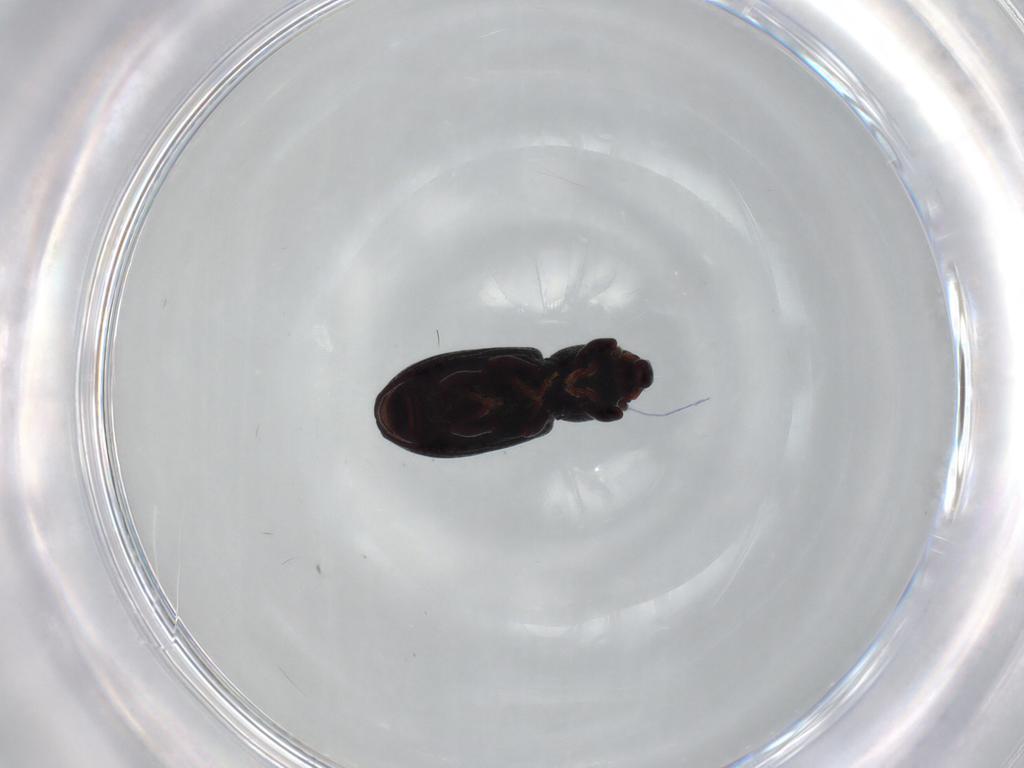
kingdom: Animalia
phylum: Arthropoda
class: Insecta
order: Coleoptera
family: Curculionidae
